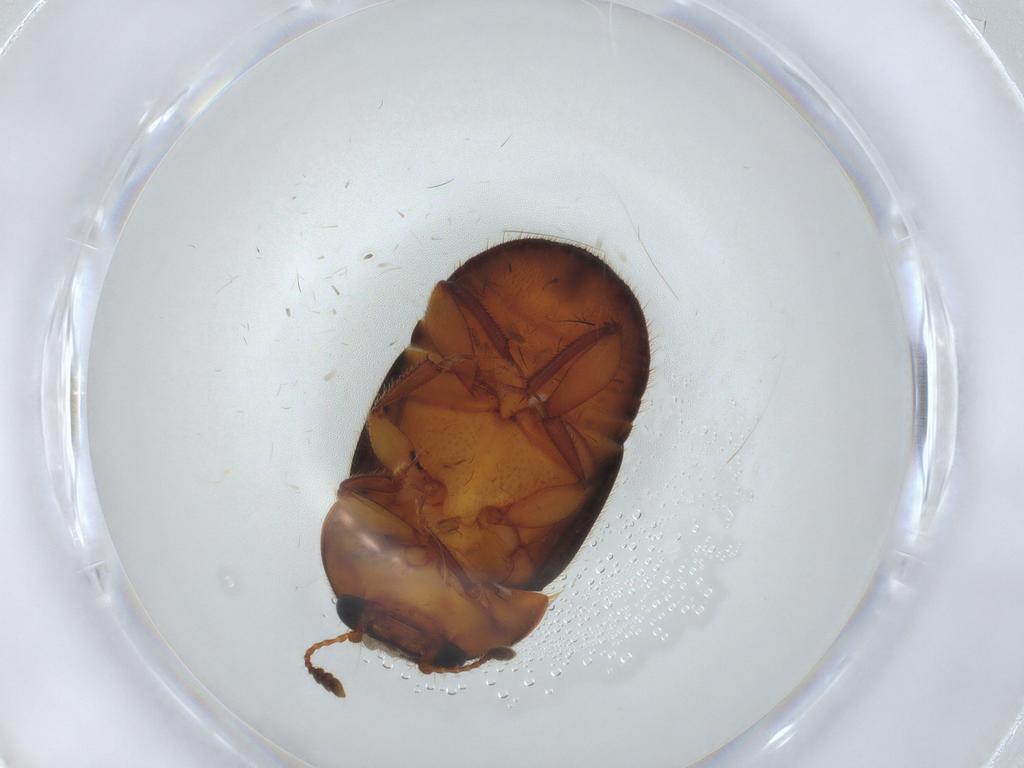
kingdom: Animalia
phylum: Arthropoda
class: Insecta
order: Coleoptera
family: Nitidulidae
